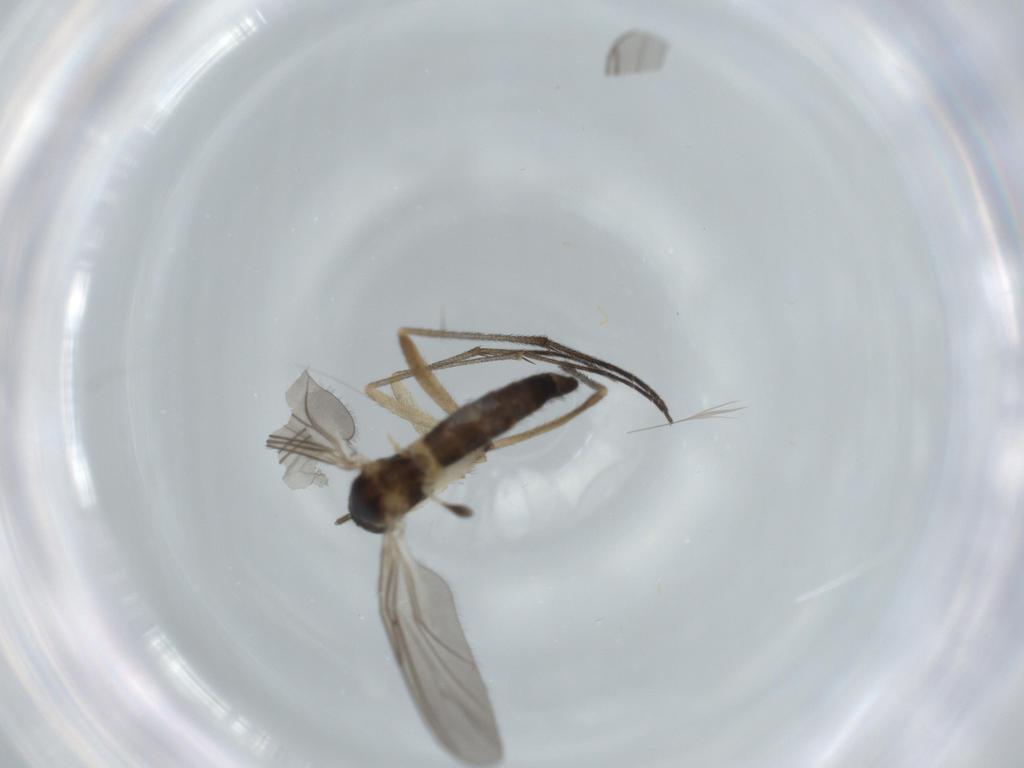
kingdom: Animalia
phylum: Arthropoda
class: Insecta
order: Diptera
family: Sciaridae
